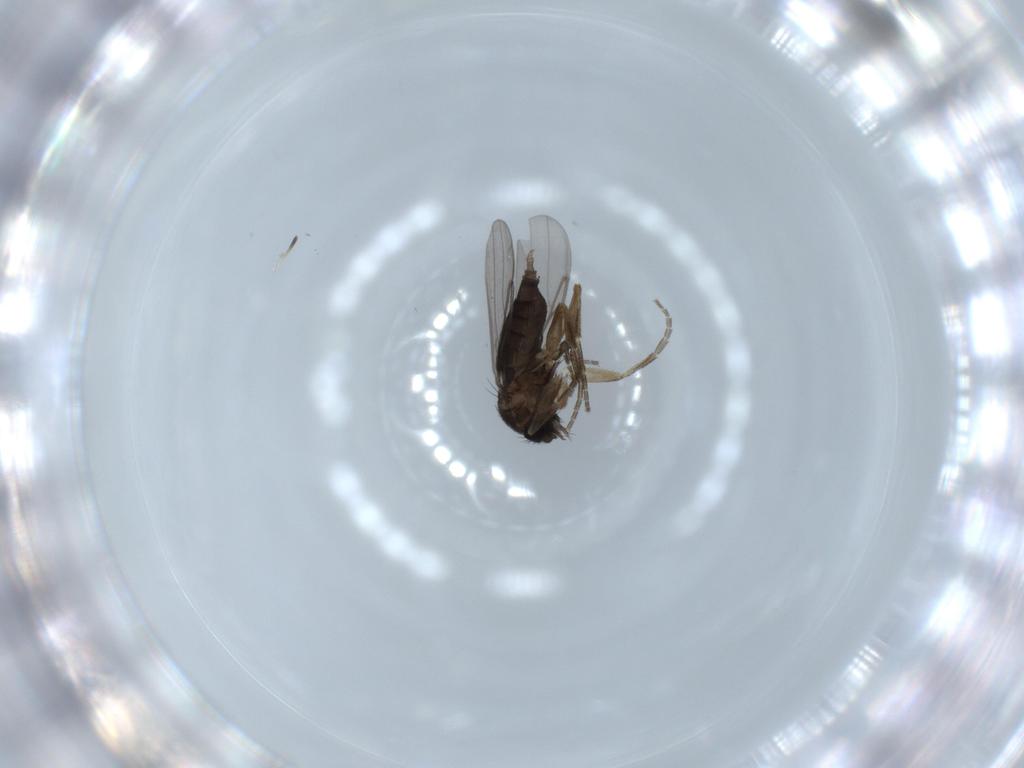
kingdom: Animalia
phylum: Arthropoda
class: Insecta
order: Diptera
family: Phoridae
